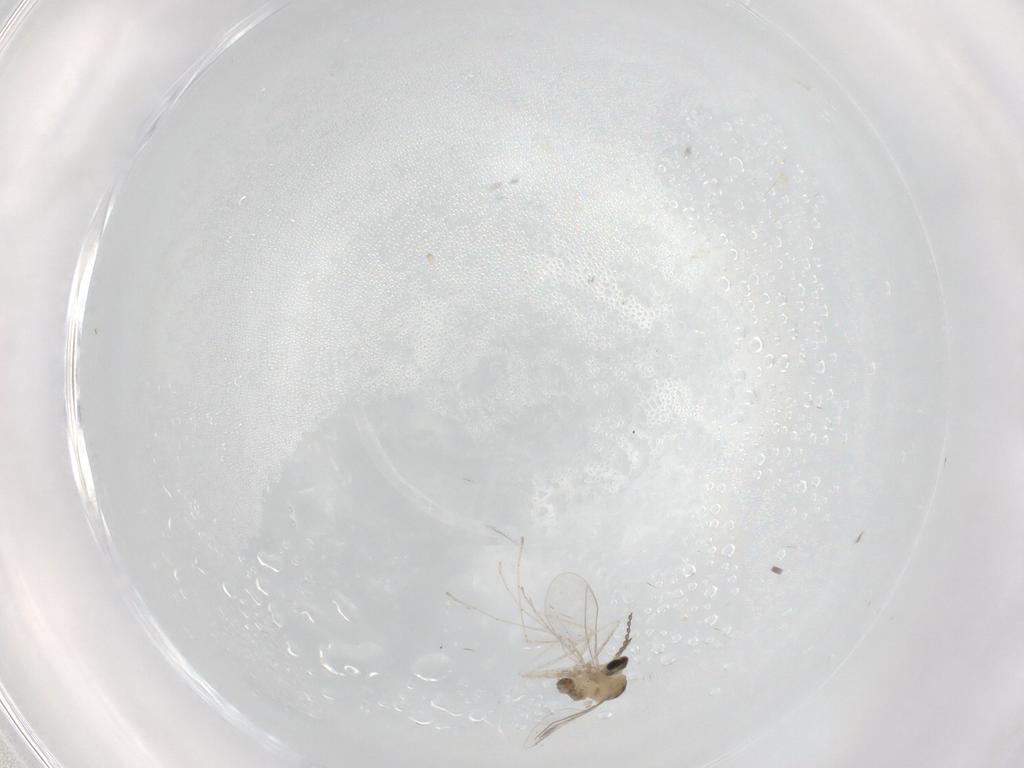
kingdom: Animalia
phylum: Arthropoda
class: Insecta
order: Diptera
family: Cecidomyiidae
